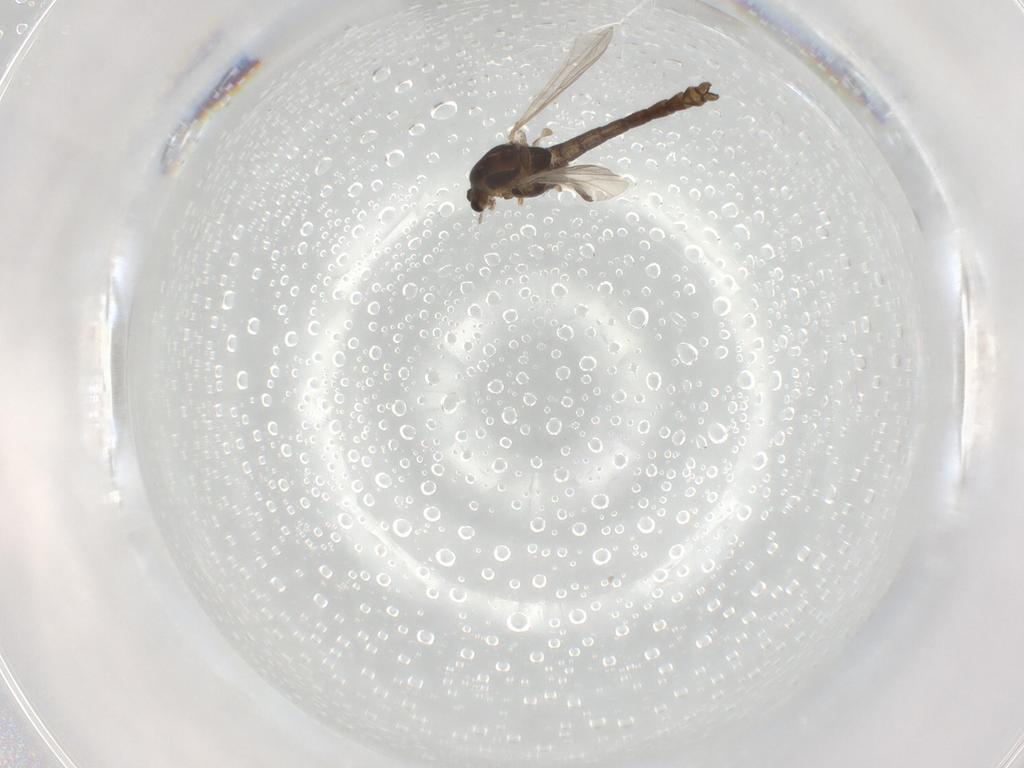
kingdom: Animalia
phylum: Arthropoda
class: Insecta
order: Diptera
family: Chironomidae
